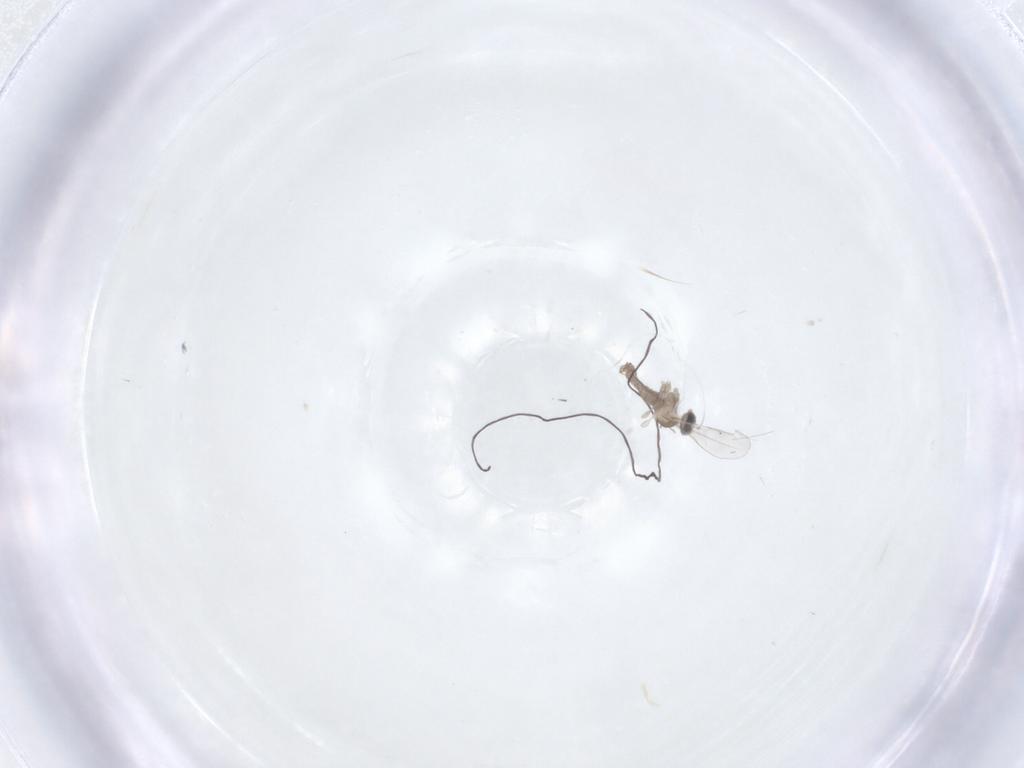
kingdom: Animalia
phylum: Arthropoda
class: Insecta
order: Diptera
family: Cecidomyiidae
